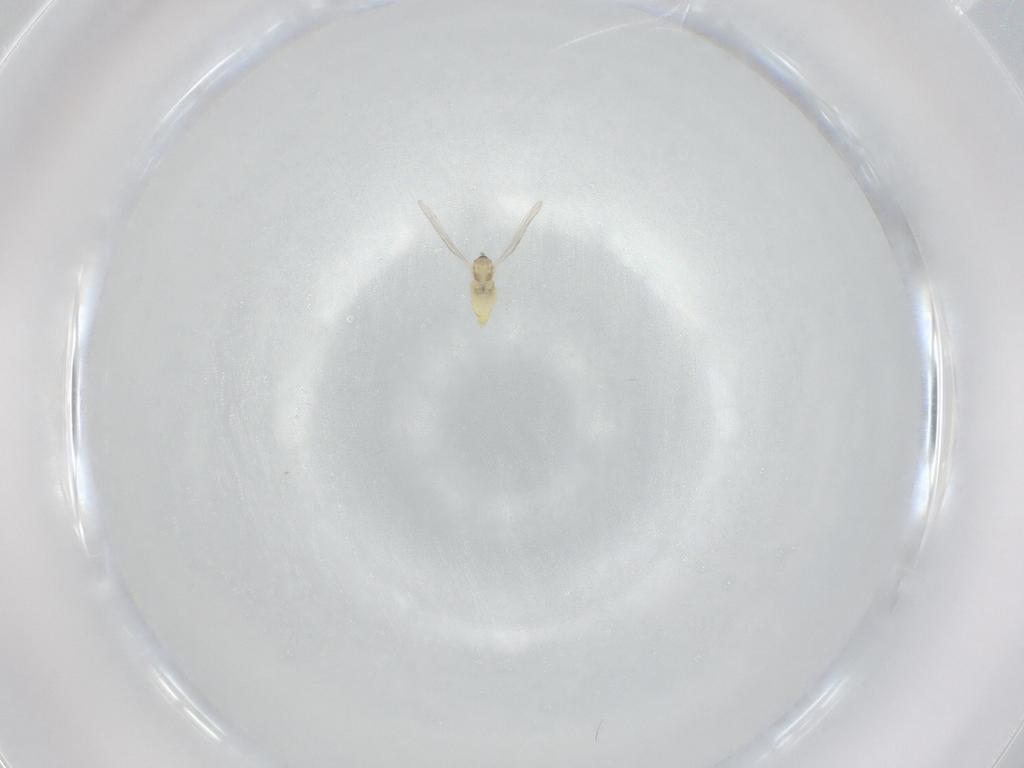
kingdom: Animalia
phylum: Arthropoda
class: Insecta
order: Diptera
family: Cecidomyiidae
